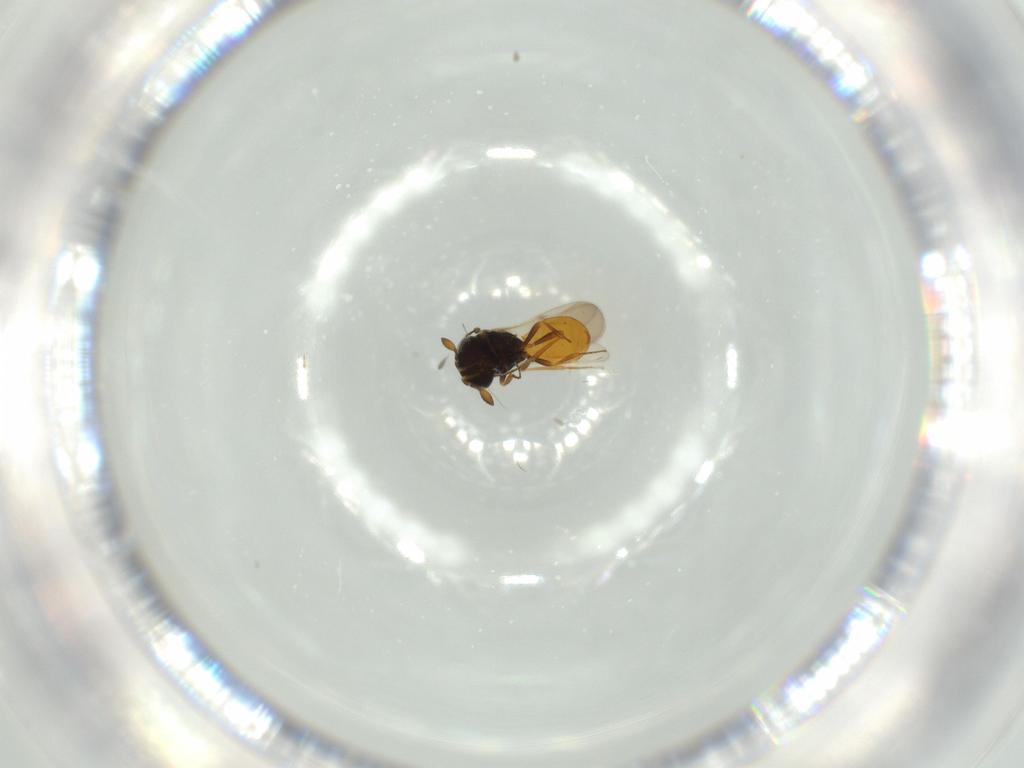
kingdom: Animalia
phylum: Arthropoda
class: Insecta
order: Hymenoptera
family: Scelionidae
